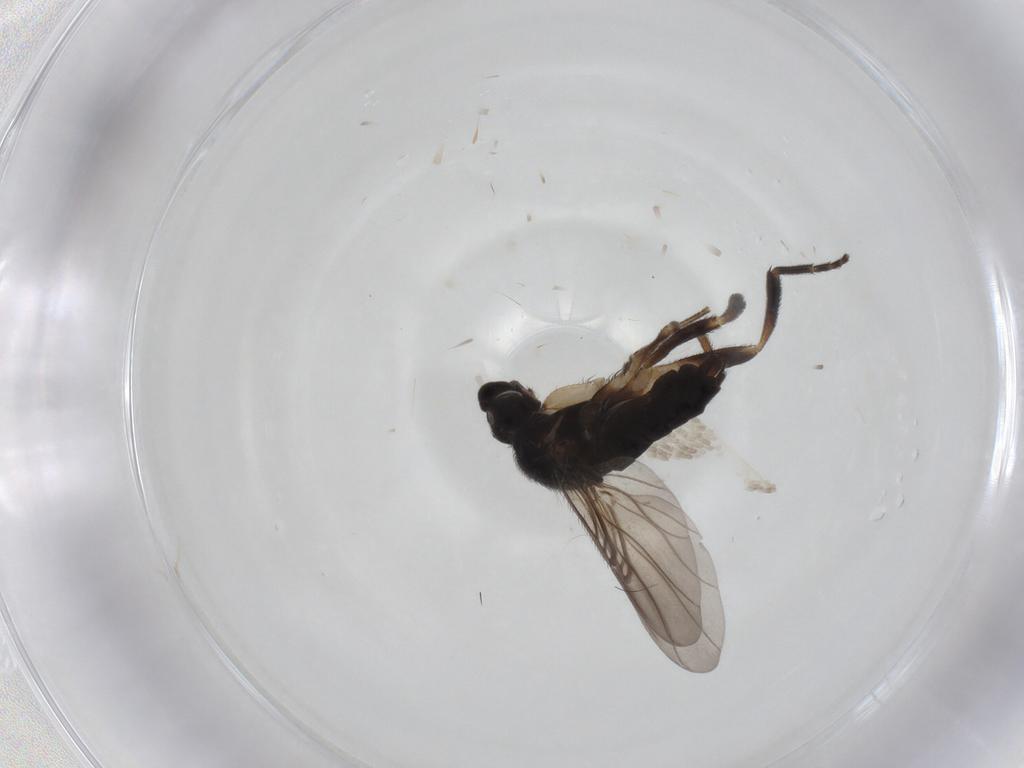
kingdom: Animalia
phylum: Arthropoda
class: Insecta
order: Diptera
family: Phoridae
